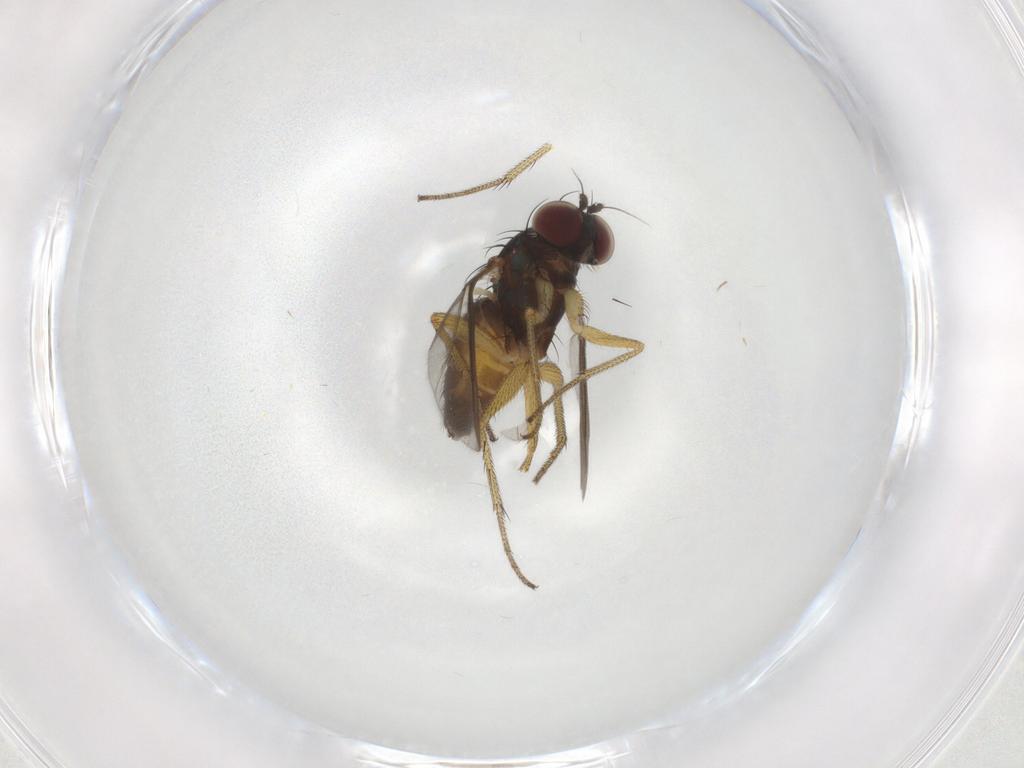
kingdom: Animalia
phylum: Arthropoda
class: Insecta
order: Diptera
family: Dolichopodidae
